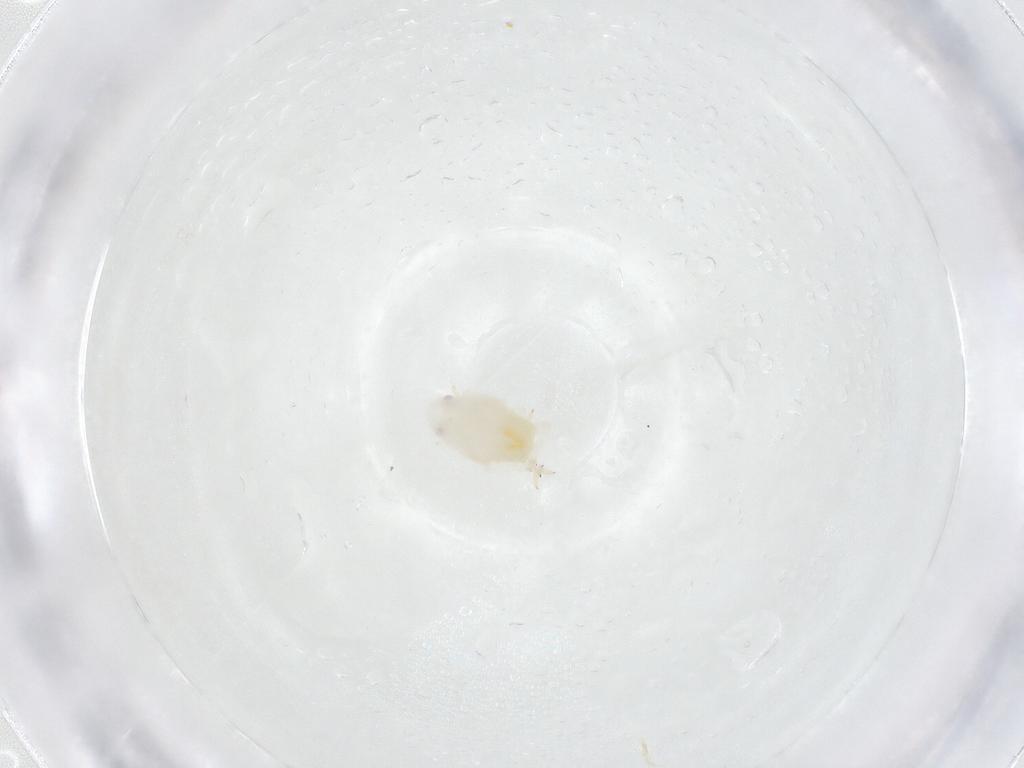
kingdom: Animalia
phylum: Arthropoda
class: Insecta
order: Hemiptera
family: Flatidae
